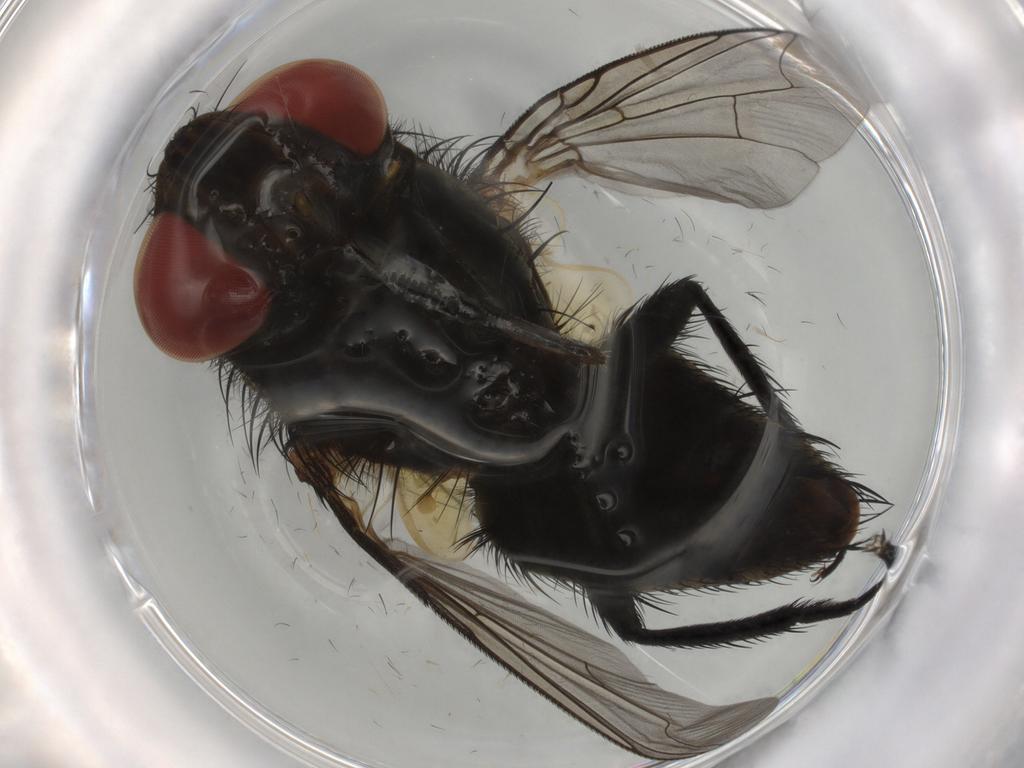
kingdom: Animalia
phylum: Arthropoda
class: Insecta
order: Diptera
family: Sarcophagidae
